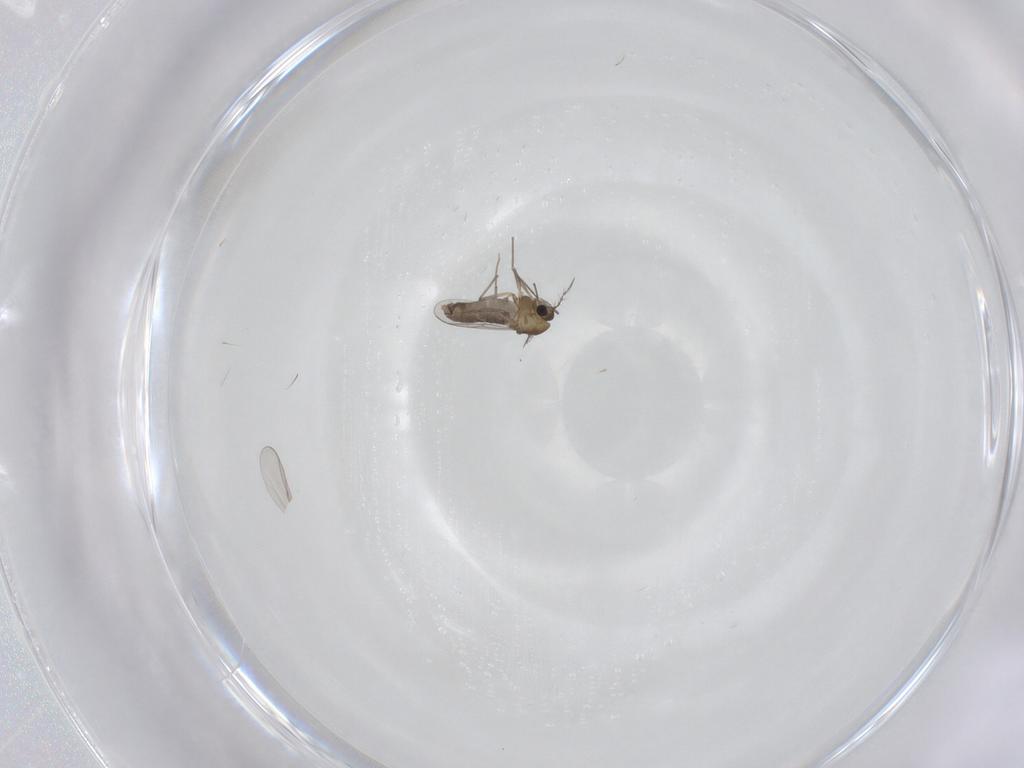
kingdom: Animalia
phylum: Arthropoda
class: Insecta
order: Diptera
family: Chironomidae
